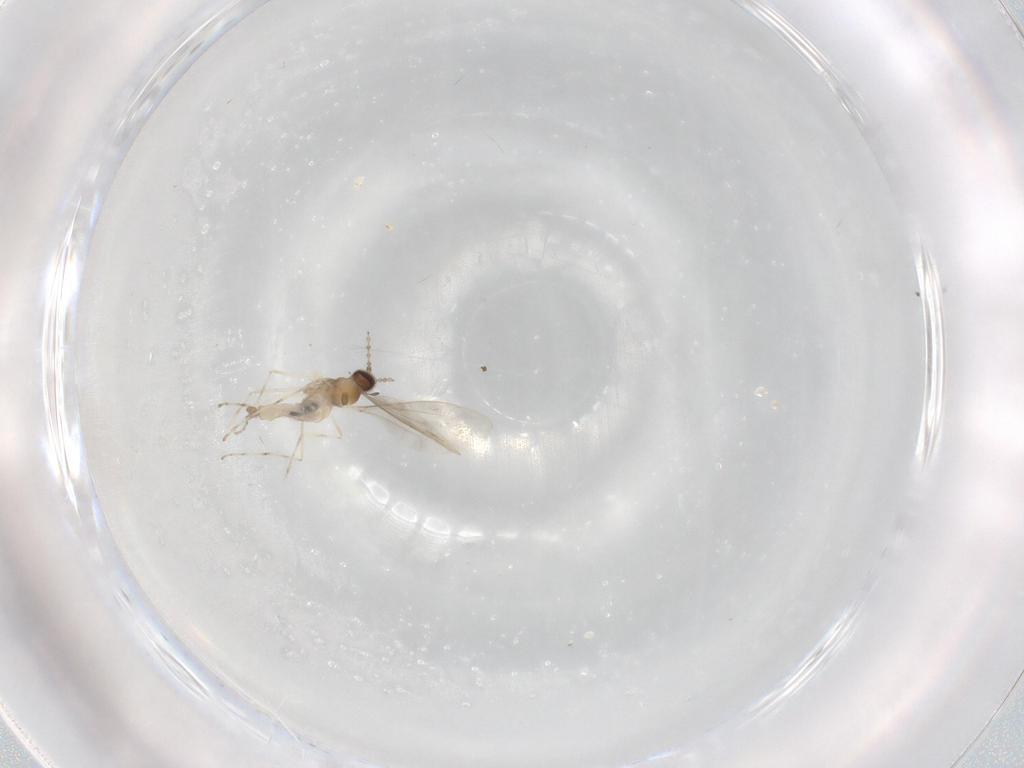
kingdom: Animalia
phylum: Arthropoda
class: Insecta
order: Diptera
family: Cecidomyiidae
